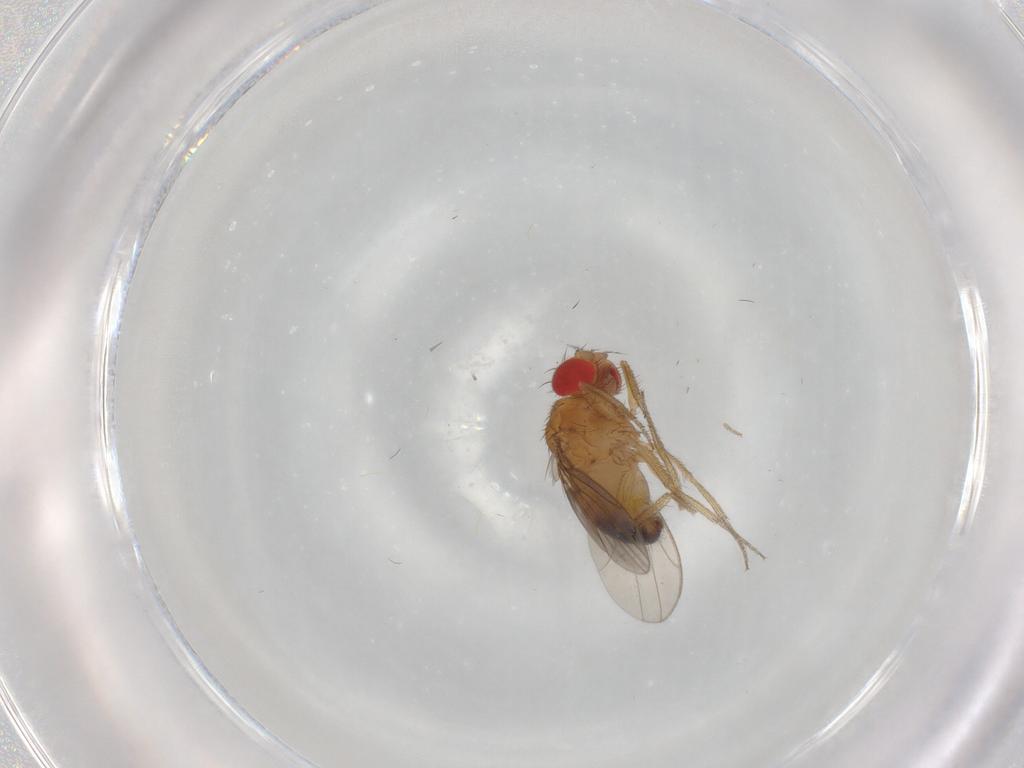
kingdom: Animalia
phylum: Arthropoda
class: Insecta
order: Diptera
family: Drosophilidae
